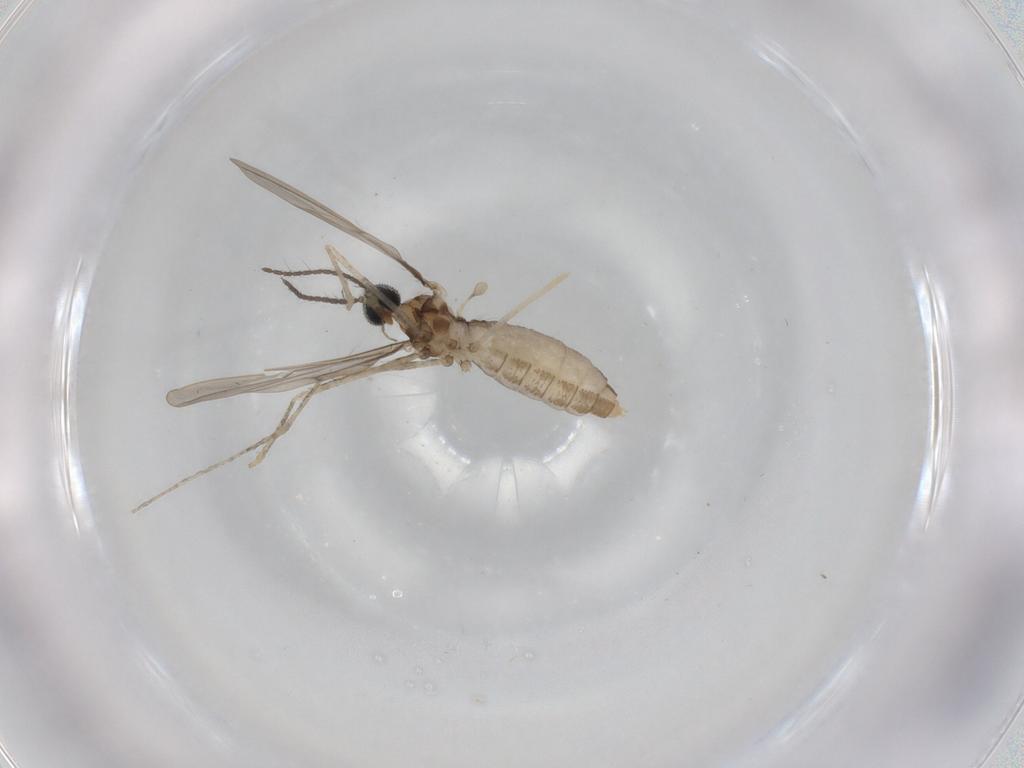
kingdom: Animalia
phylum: Arthropoda
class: Insecta
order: Diptera
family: Cecidomyiidae
